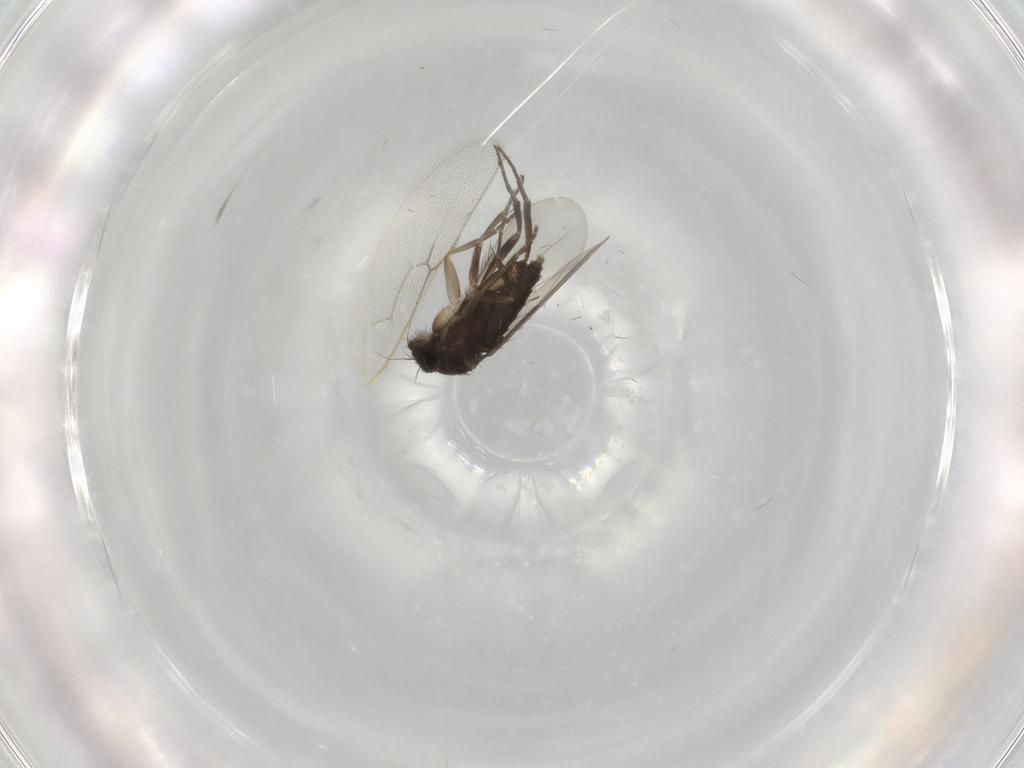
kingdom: Animalia
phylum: Arthropoda
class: Insecta
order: Diptera
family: Phoridae
